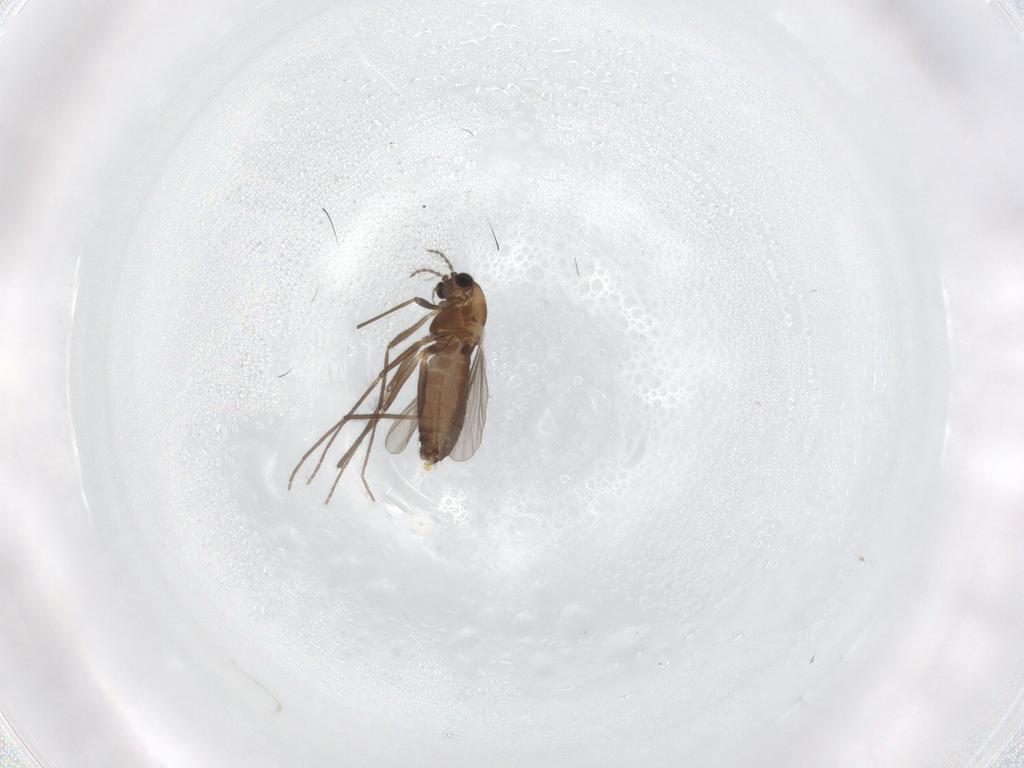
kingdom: Animalia
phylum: Arthropoda
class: Insecta
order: Diptera
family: Chironomidae
